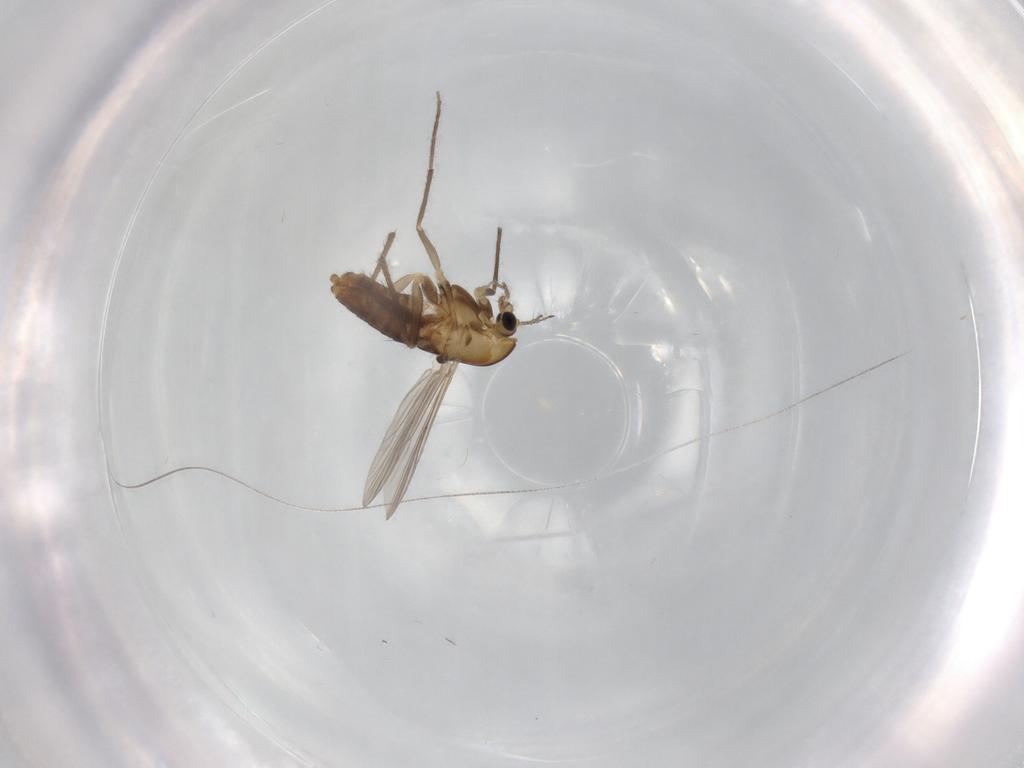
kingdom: Animalia
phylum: Arthropoda
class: Insecta
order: Diptera
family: Chironomidae
